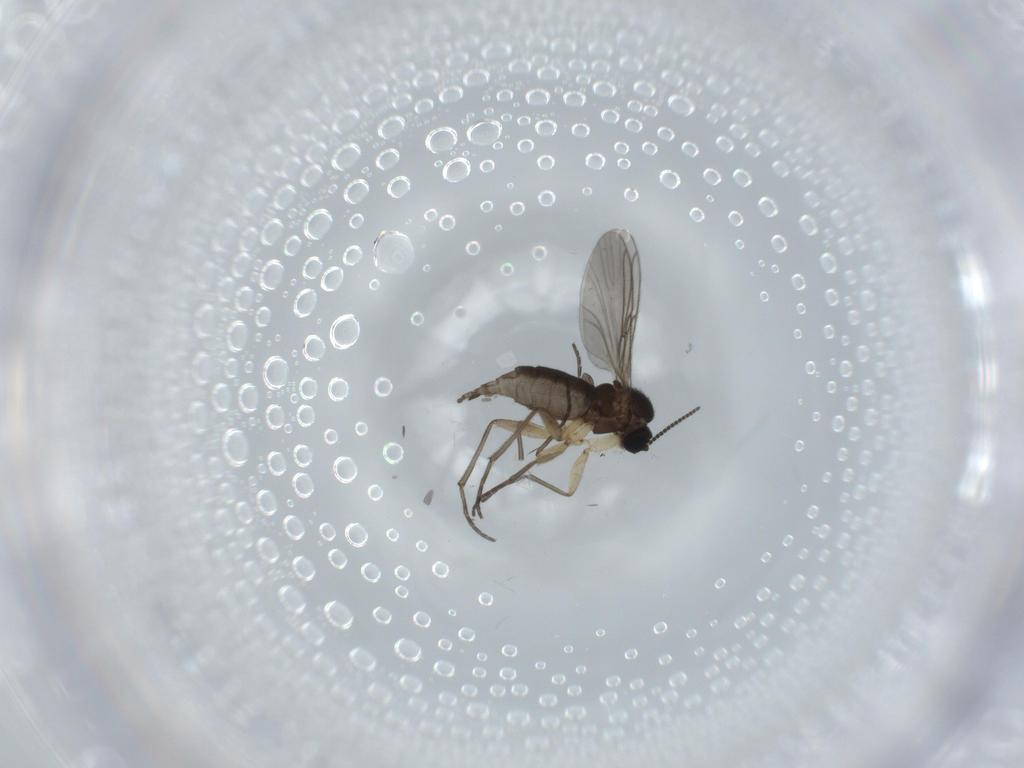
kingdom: Animalia
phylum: Arthropoda
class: Insecta
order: Diptera
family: Sciaridae
